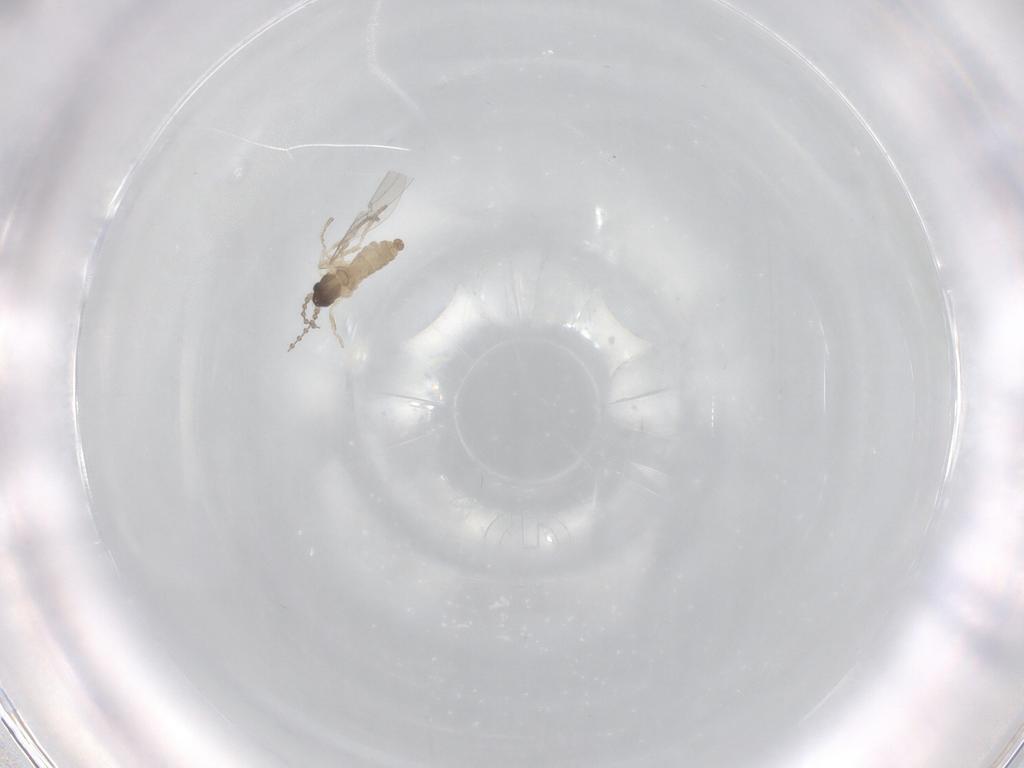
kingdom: Animalia
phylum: Arthropoda
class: Insecta
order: Diptera
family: Cecidomyiidae
